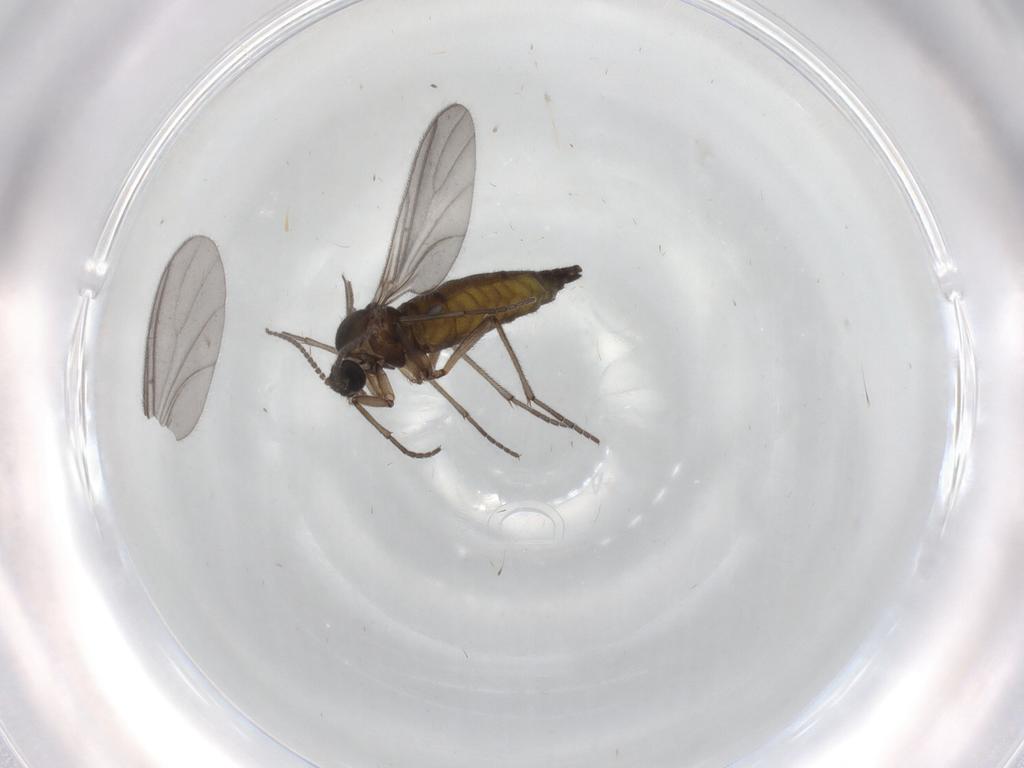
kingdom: Animalia
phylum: Arthropoda
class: Insecta
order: Diptera
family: Sciaridae
